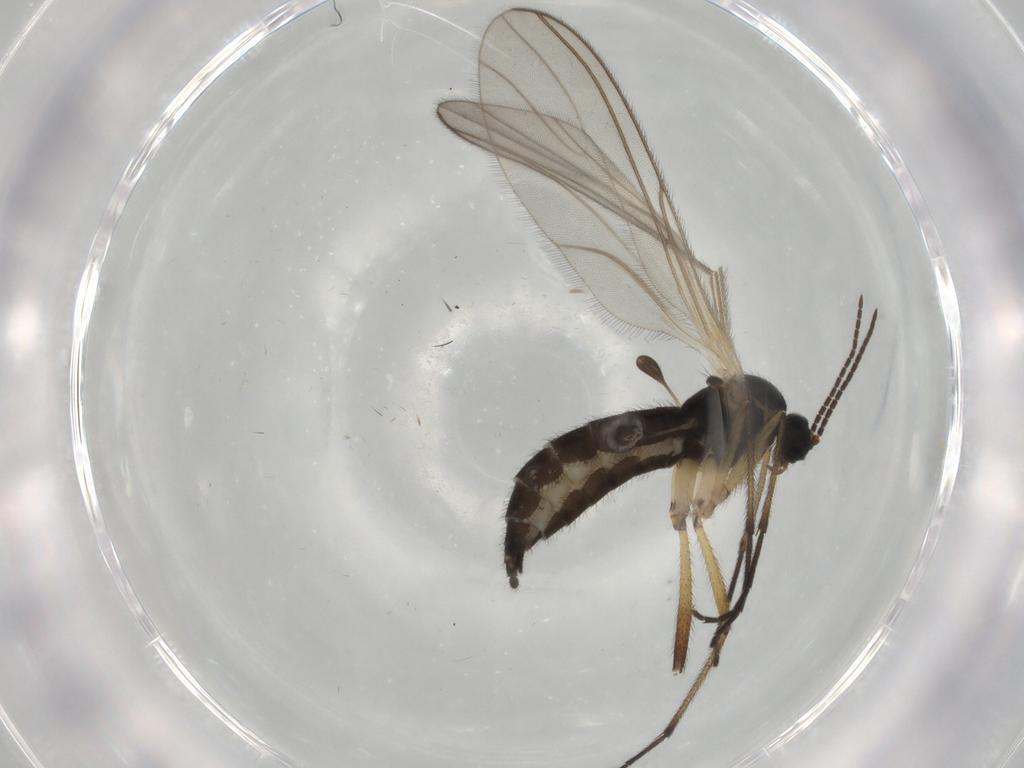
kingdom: Animalia
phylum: Arthropoda
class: Insecta
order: Diptera
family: Sciaridae
